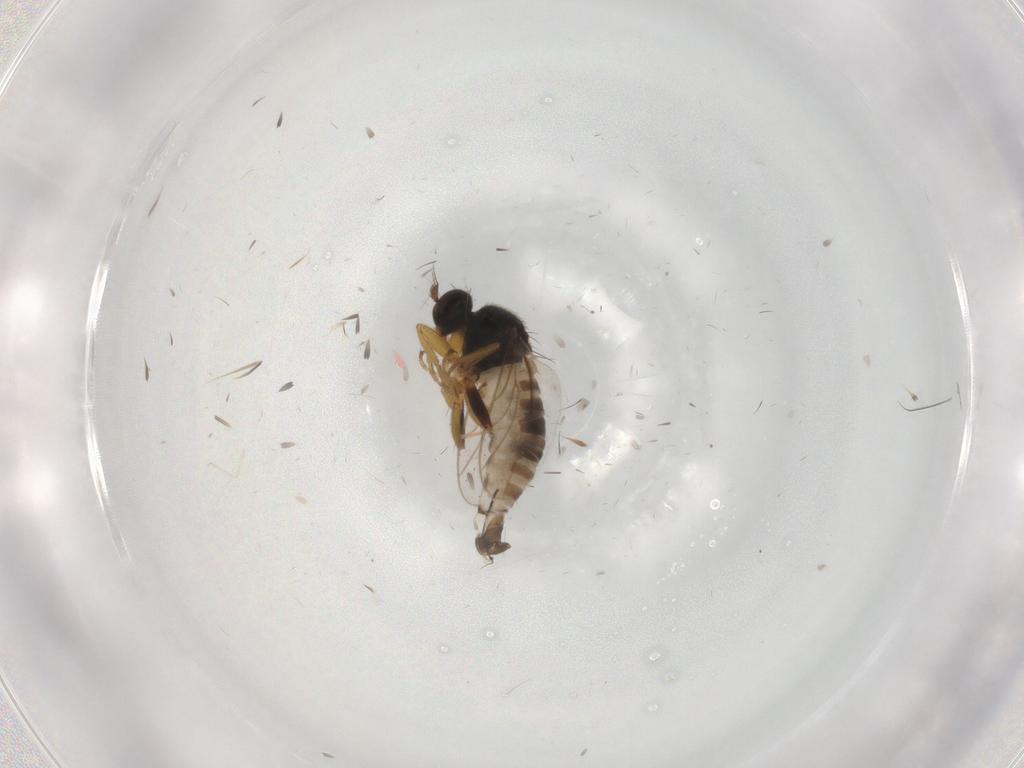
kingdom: Animalia
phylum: Arthropoda
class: Insecta
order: Diptera
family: Hybotidae
